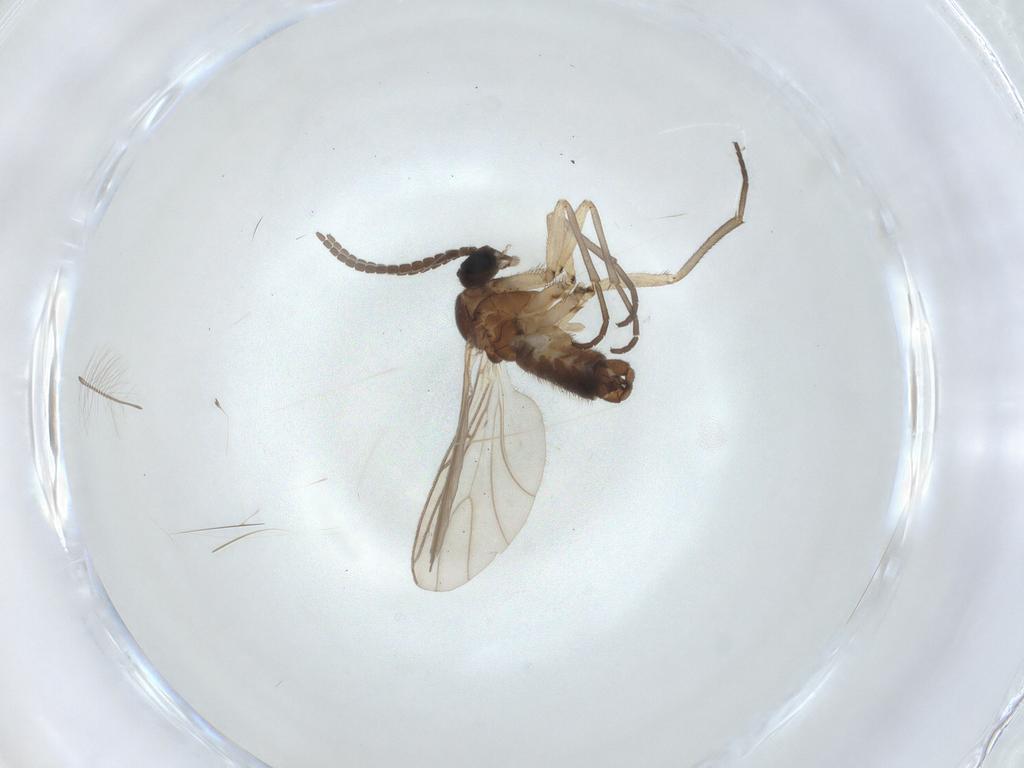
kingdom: Animalia
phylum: Arthropoda
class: Insecta
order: Diptera
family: Sciaridae
